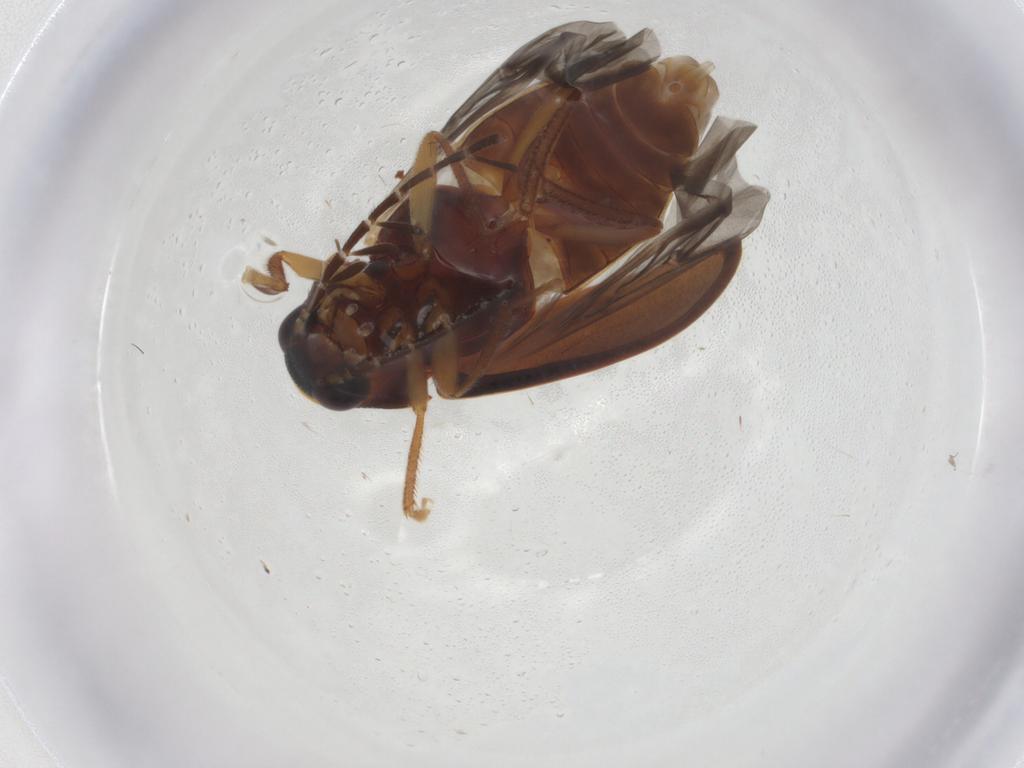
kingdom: Animalia
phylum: Arthropoda
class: Insecta
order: Coleoptera
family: Ptilodactylidae
